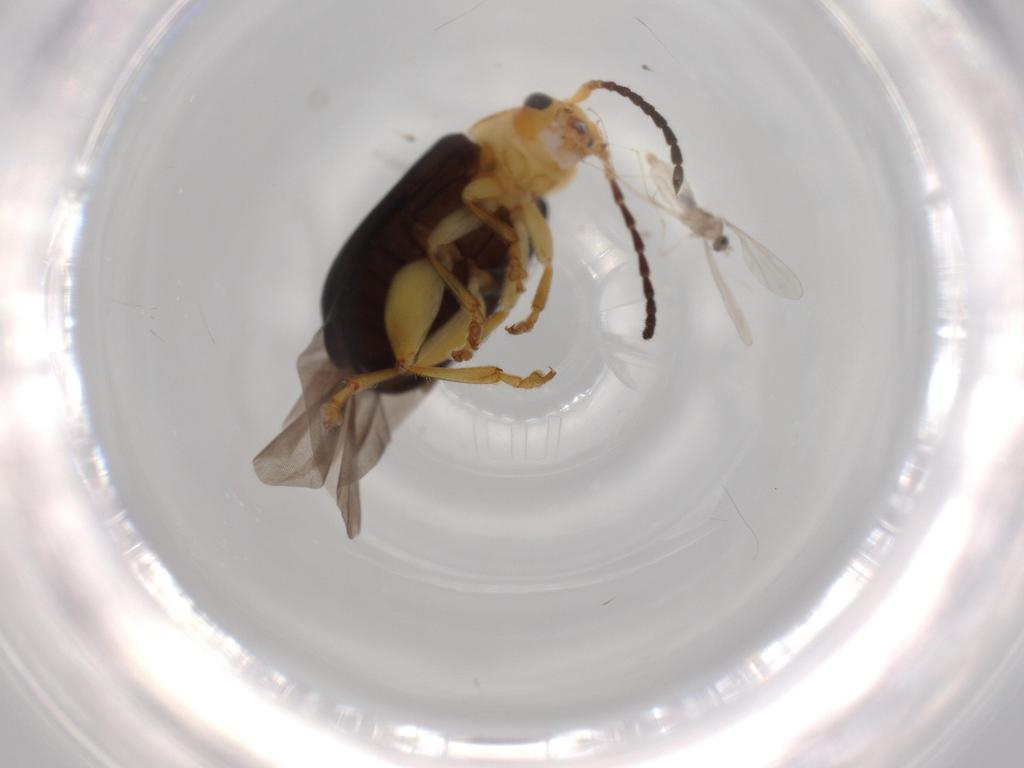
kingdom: Animalia
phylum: Arthropoda
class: Insecta
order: Coleoptera
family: Chrysomelidae
